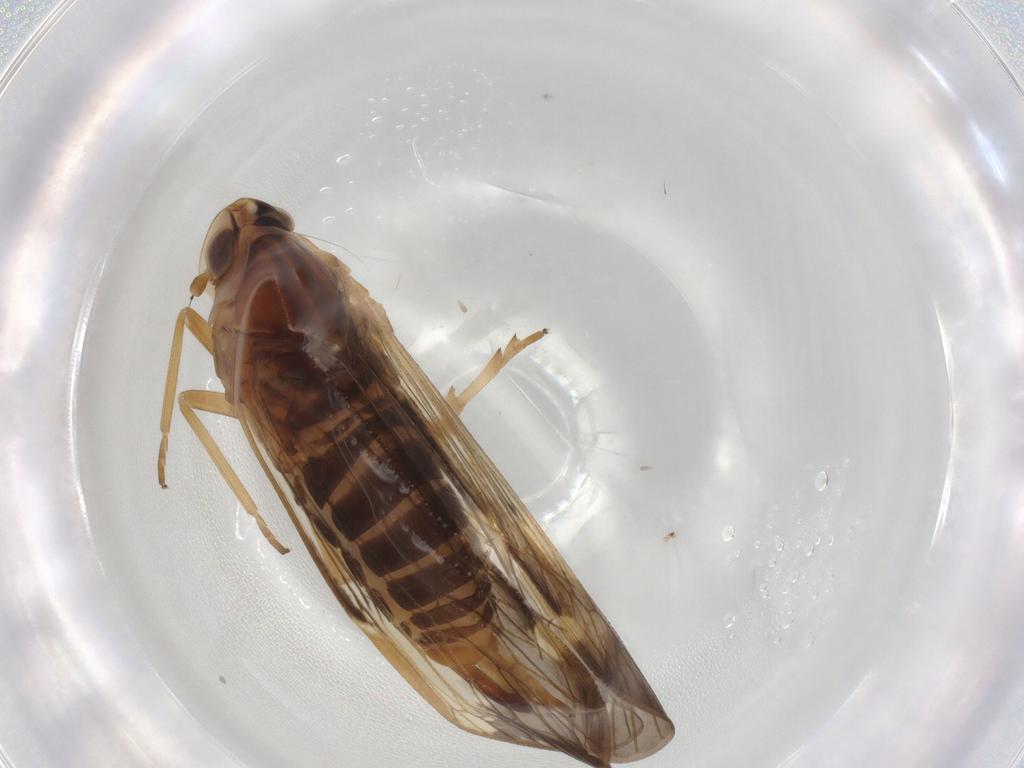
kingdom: Animalia
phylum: Arthropoda
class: Insecta
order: Hemiptera
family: Cixiidae
